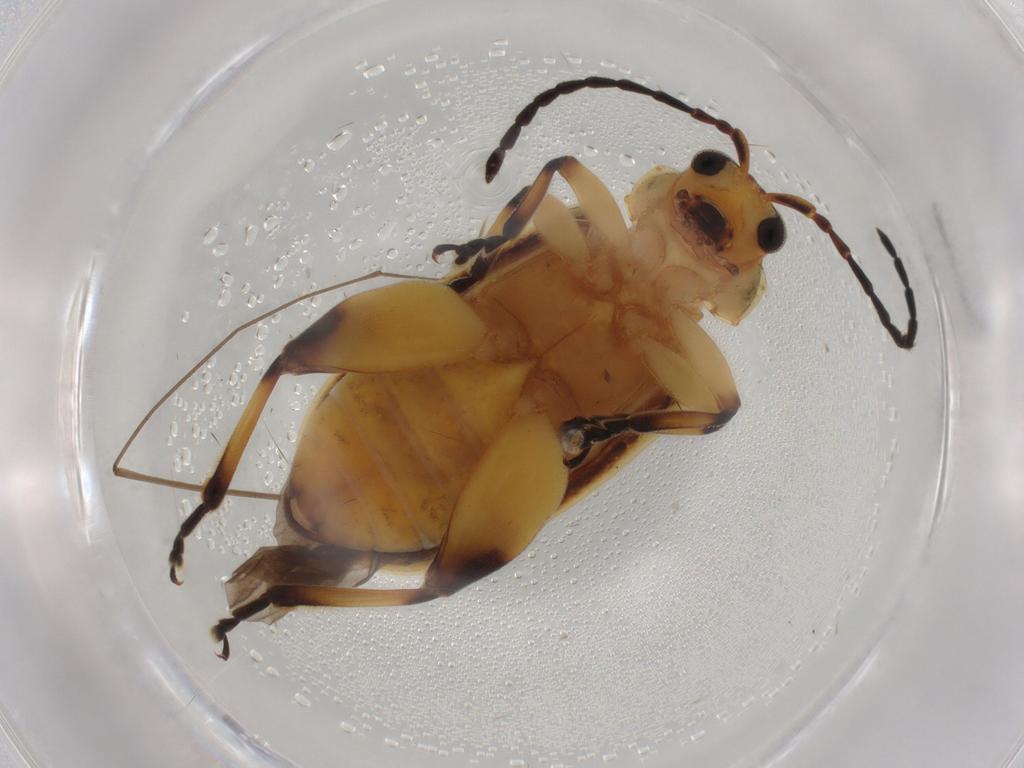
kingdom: Animalia
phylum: Arthropoda
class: Insecta
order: Coleoptera
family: Chrysomelidae
